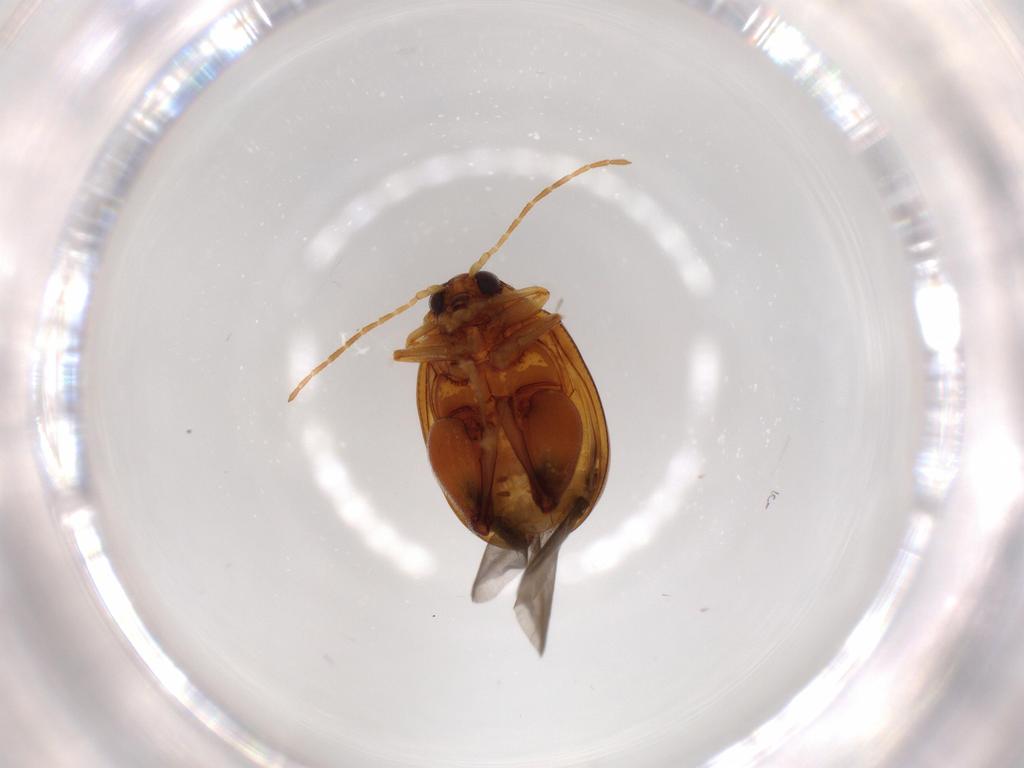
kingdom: Animalia
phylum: Arthropoda
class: Insecta
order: Coleoptera
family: Chrysomelidae
